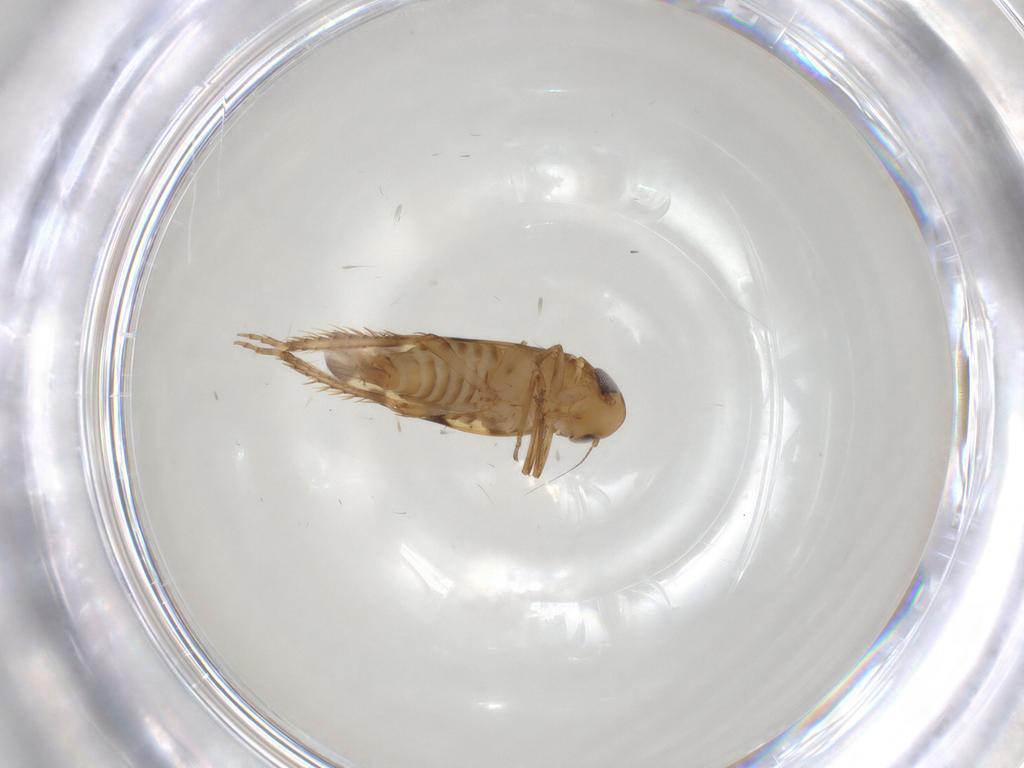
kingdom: Animalia
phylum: Arthropoda
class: Insecta
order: Hemiptera
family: Cicadellidae
